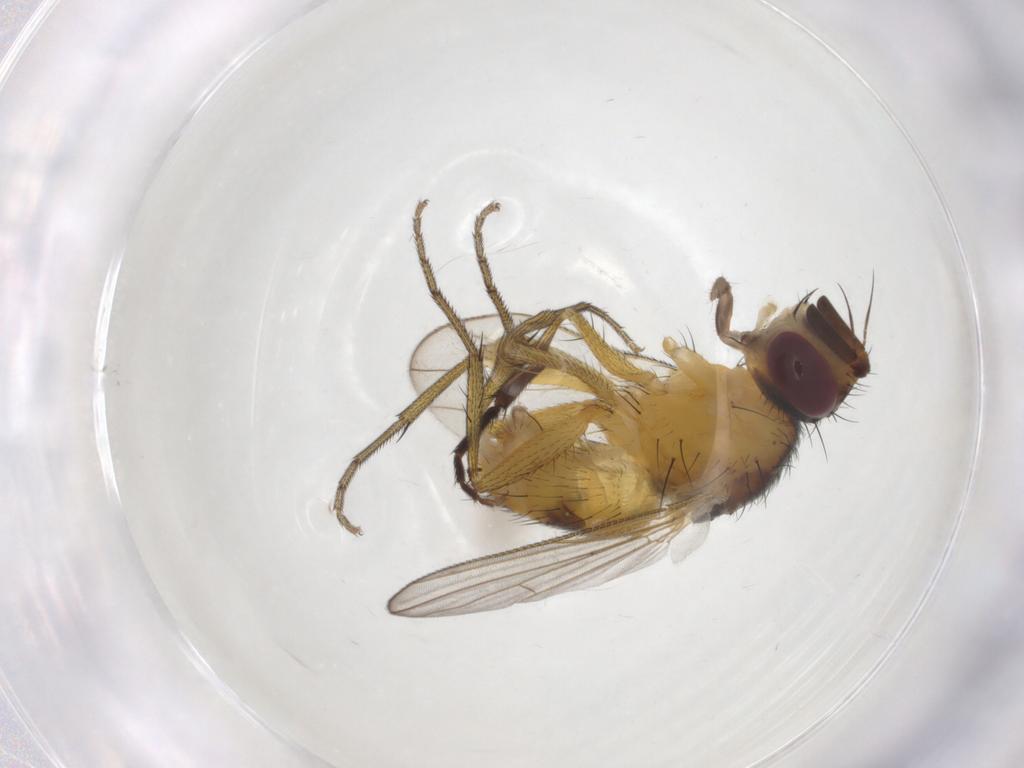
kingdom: Animalia
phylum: Arthropoda
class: Insecta
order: Diptera
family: Muscidae
